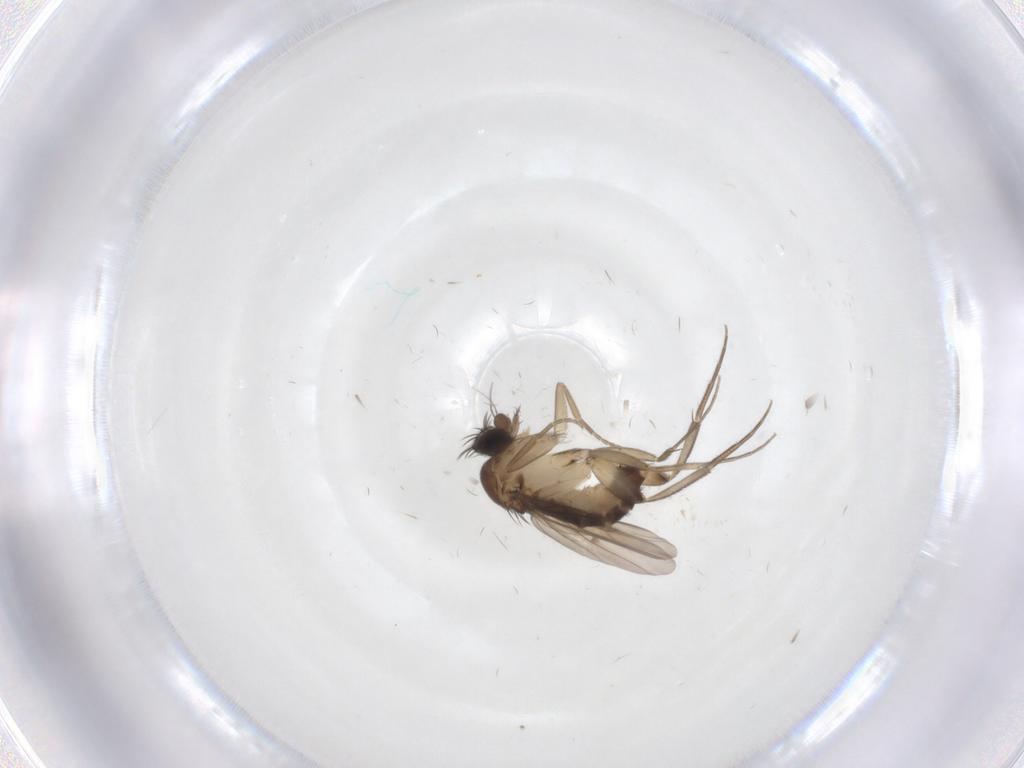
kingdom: Animalia
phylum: Arthropoda
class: Insecta
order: Diptera
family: Phoridae
